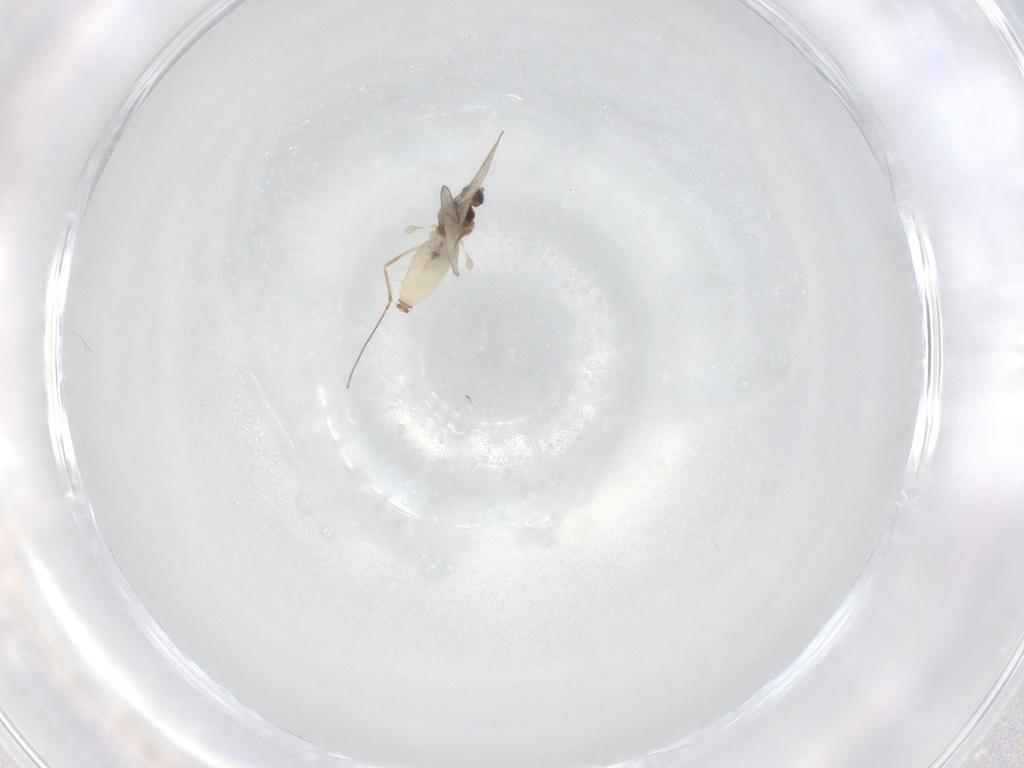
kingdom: Animalia
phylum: Arthropoda
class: Insecta
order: Diptera
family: Cecidomyiidae
